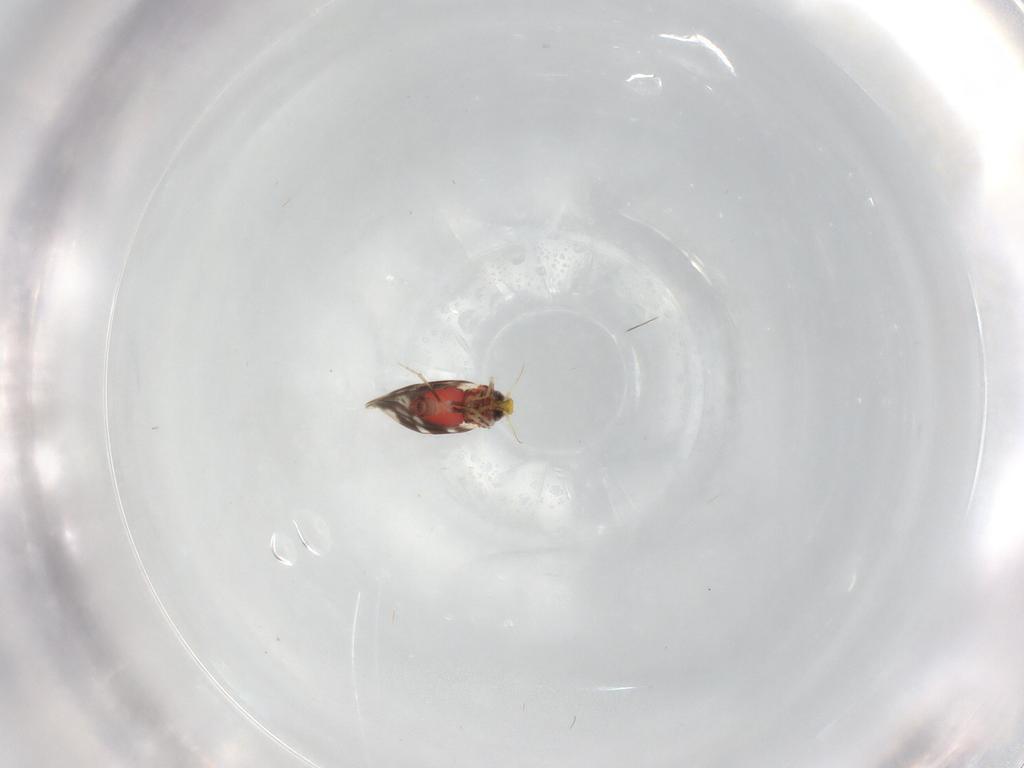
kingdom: Animalia
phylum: Arthropoda
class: Insecta
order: Hemiptera
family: Aleyrodidae
